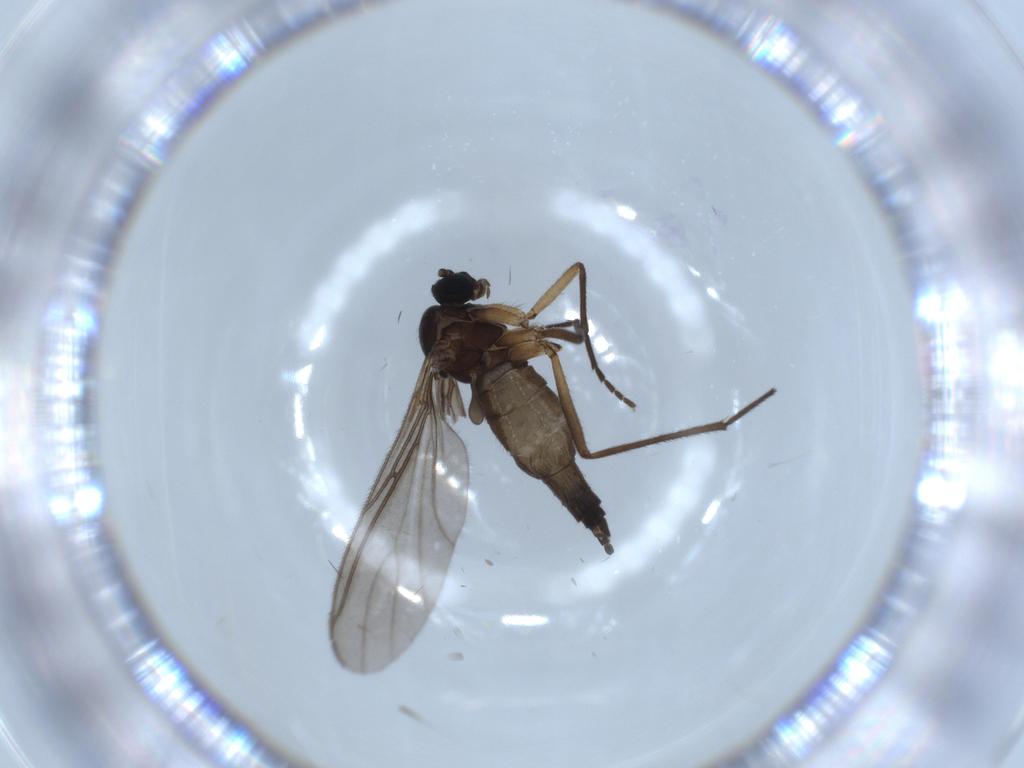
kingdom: Animalia
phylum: Arthropoda
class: Insecta
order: Diptera
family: Sciaridae
